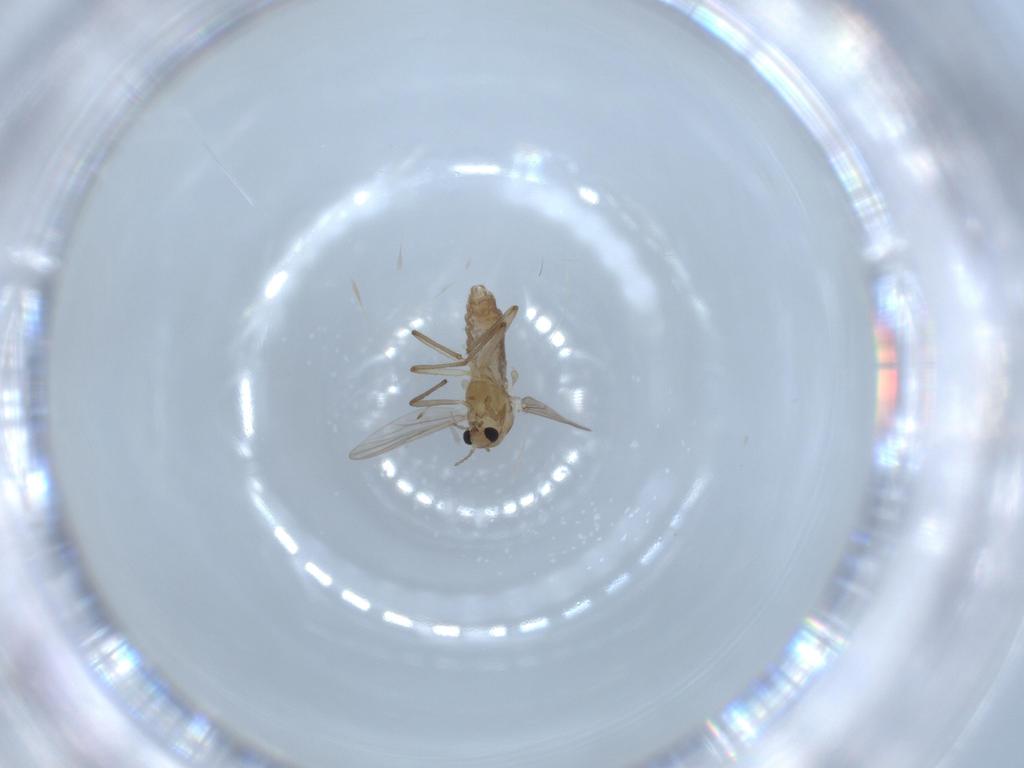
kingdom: Animalia
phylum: Arthropoda
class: Insecta
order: Diptera
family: Chironomidae
